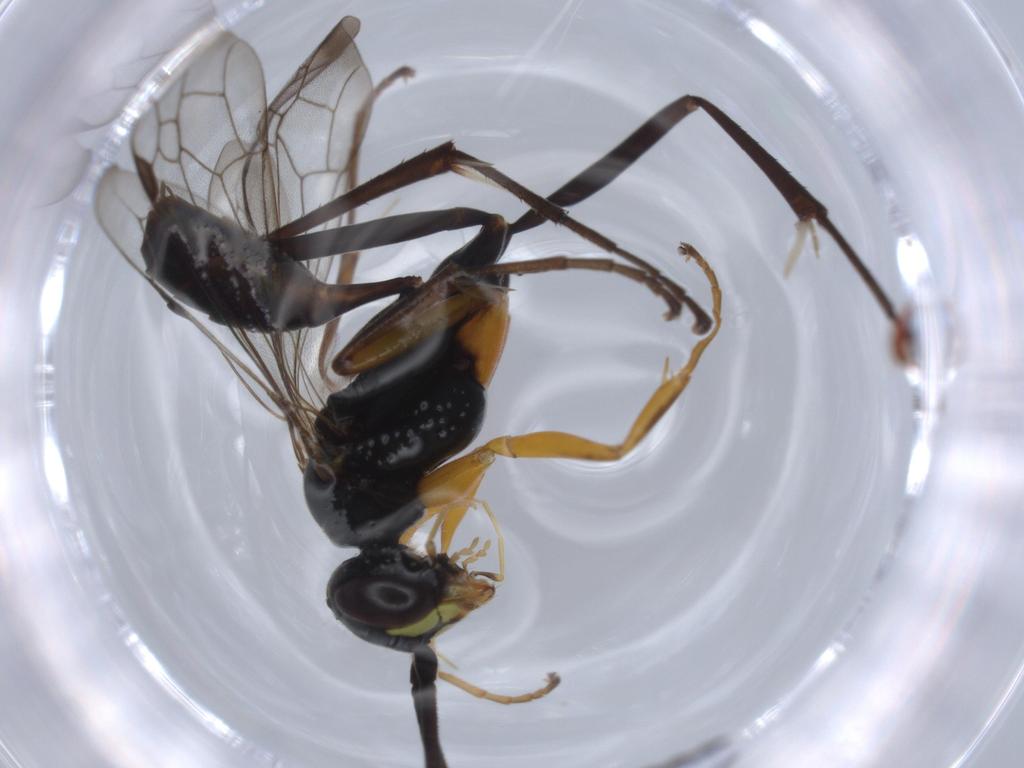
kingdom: Animalia
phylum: Arthropoda
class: Insecta
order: Hymenoptera
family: Pompilidae
